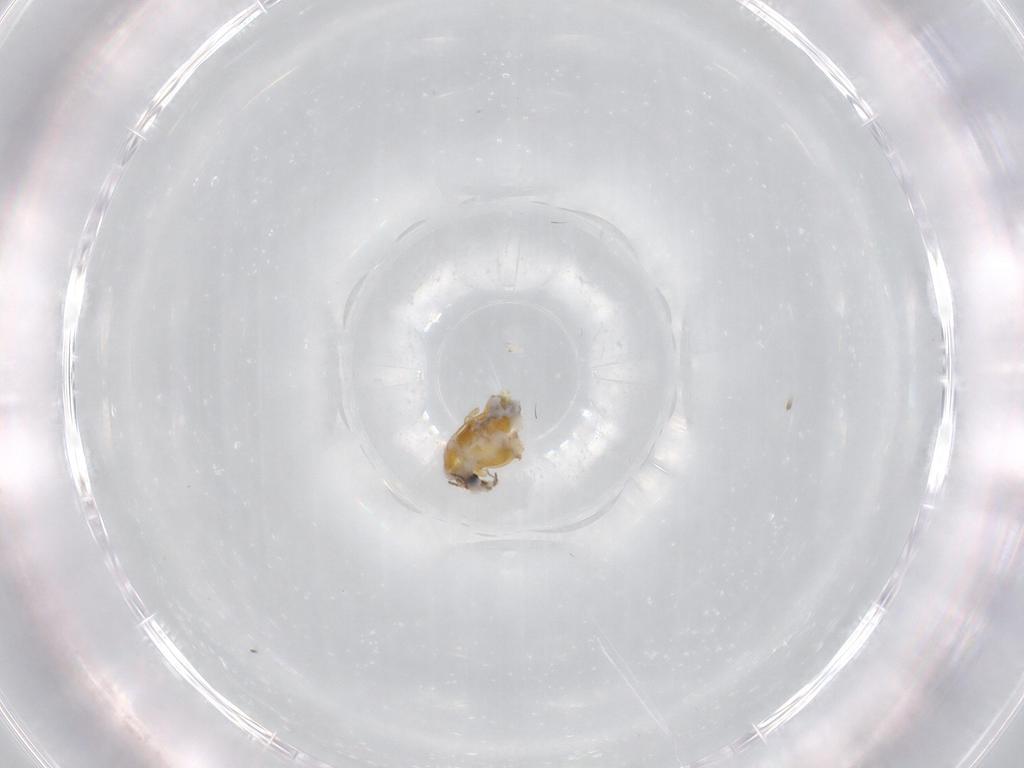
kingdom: Animalia
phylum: Arthropoda
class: Insecta
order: Diptera
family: Chironomidae
